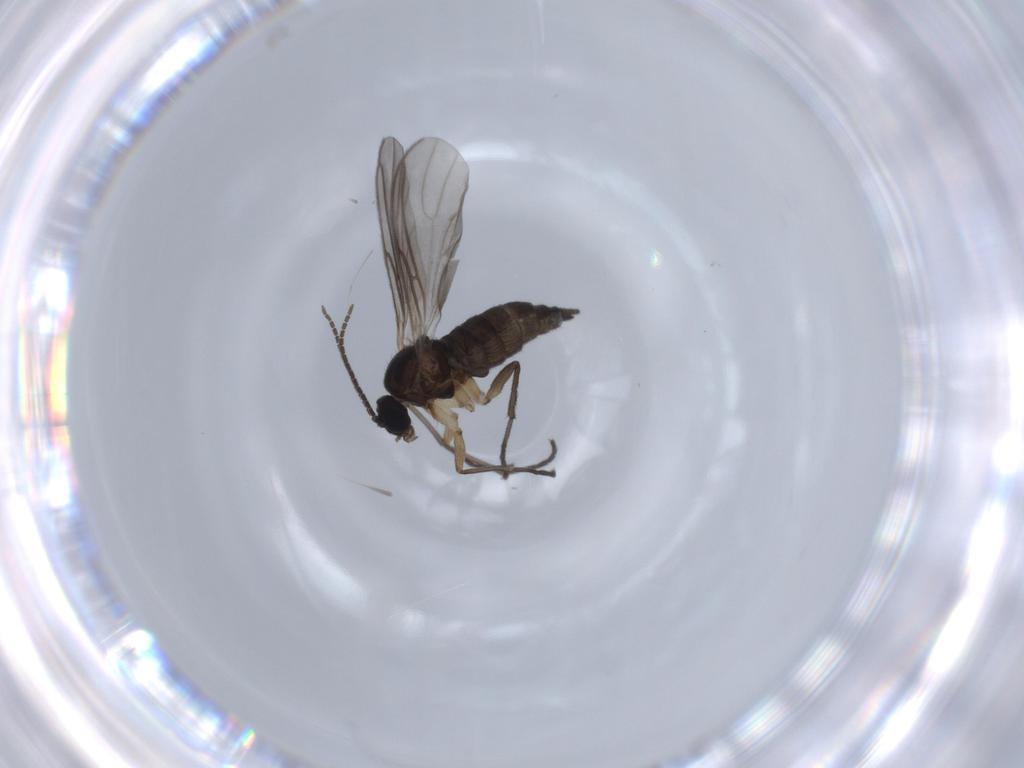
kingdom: Animalia
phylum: Arthropoda
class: Insecta
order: Diptera
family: Sciaridae
